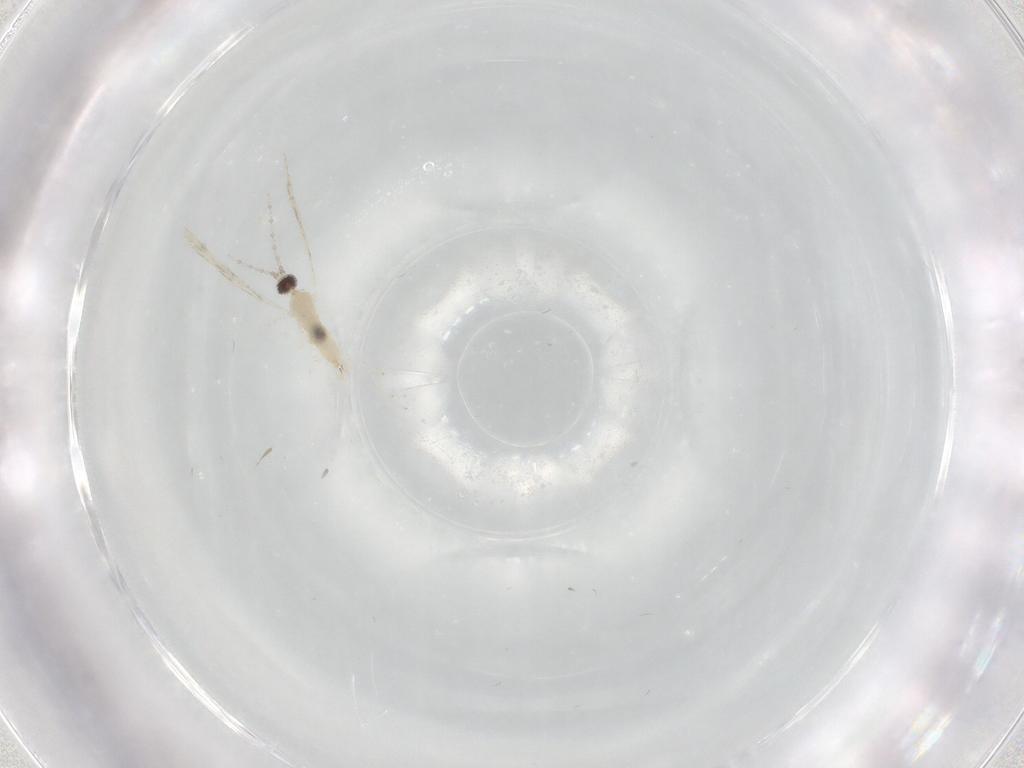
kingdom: Animalia
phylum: Arthropoda
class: Insecta
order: Diptera
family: Cecidomyiidae
